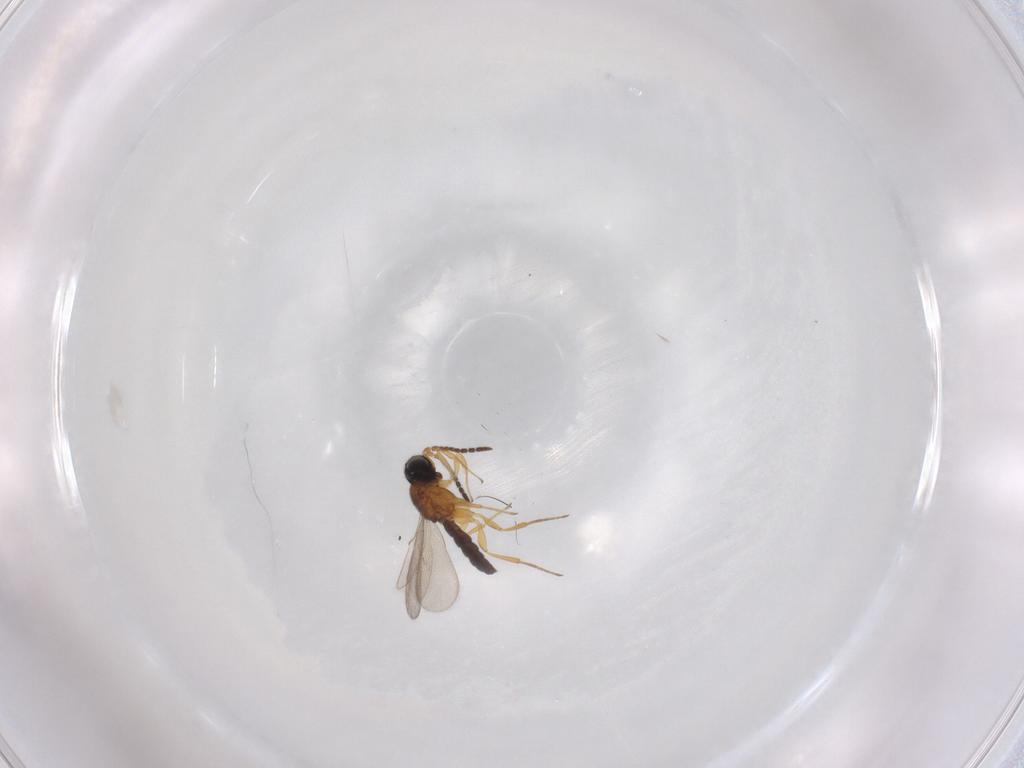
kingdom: Animalia
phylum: Arthropoda
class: Insecta
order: Hymenoptera
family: Scelionidae
